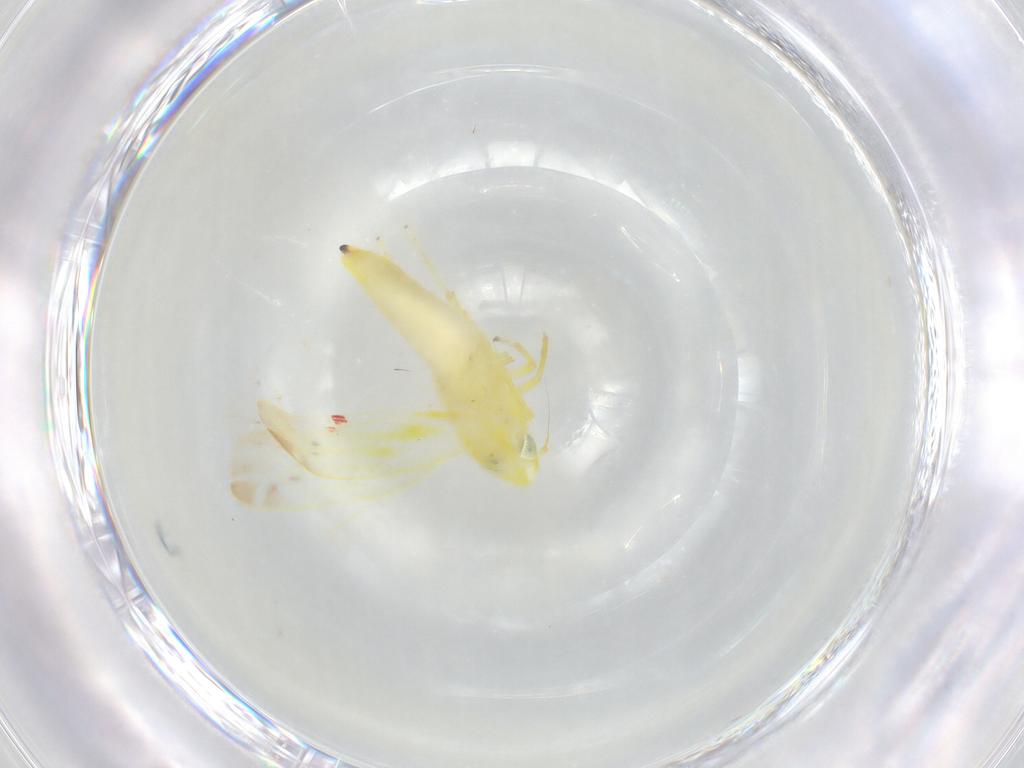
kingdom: Animalia
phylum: Arthropoda
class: Insecta
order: Hemiptera
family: Cicadellidae
